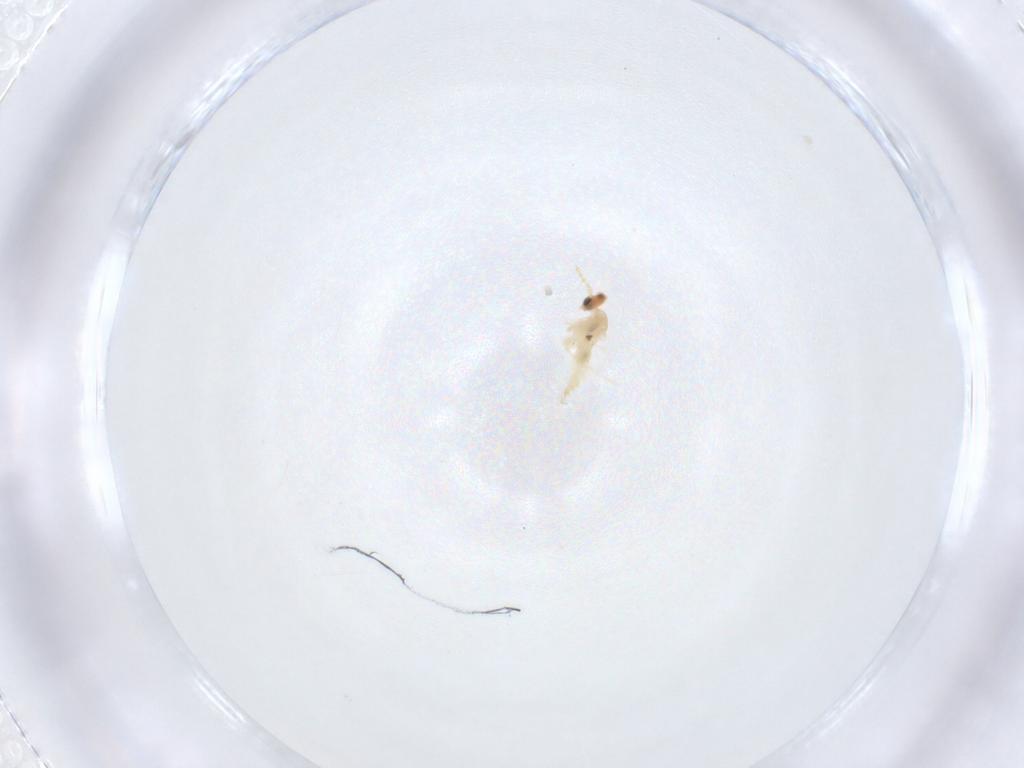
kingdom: Animalia
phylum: Arthropoda
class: Insecta
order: Diptera
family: Cecidomyiidae
